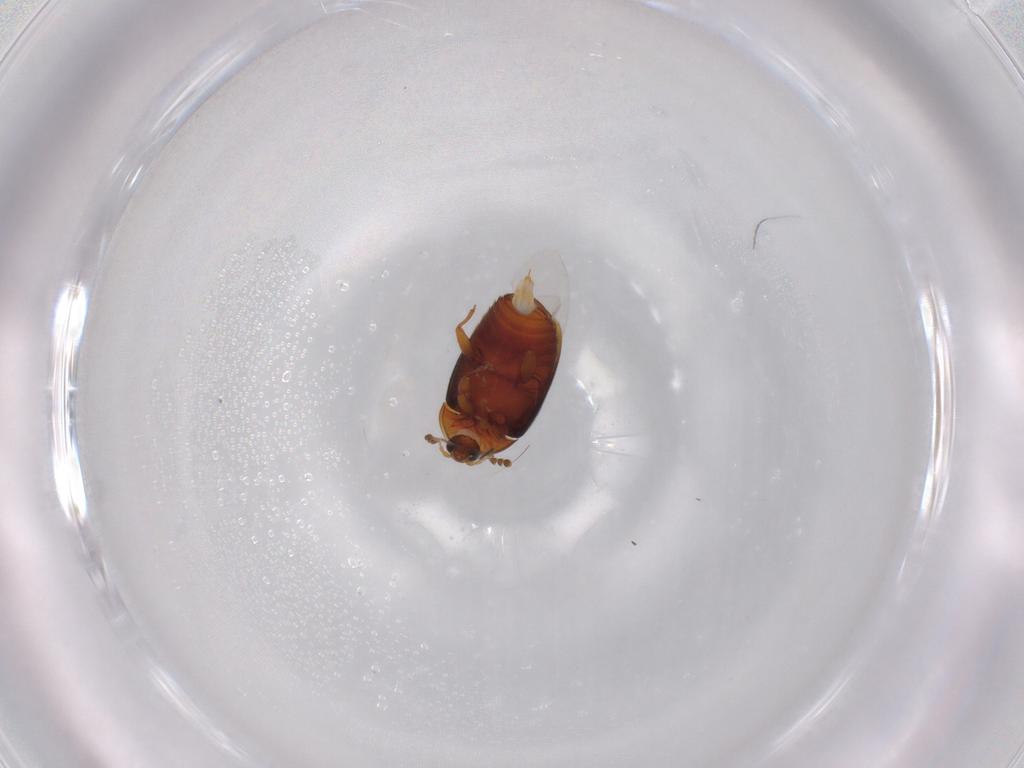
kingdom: Animalia
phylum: Arthropoda
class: Insecta
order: Coleoptera
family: Corylophidae
